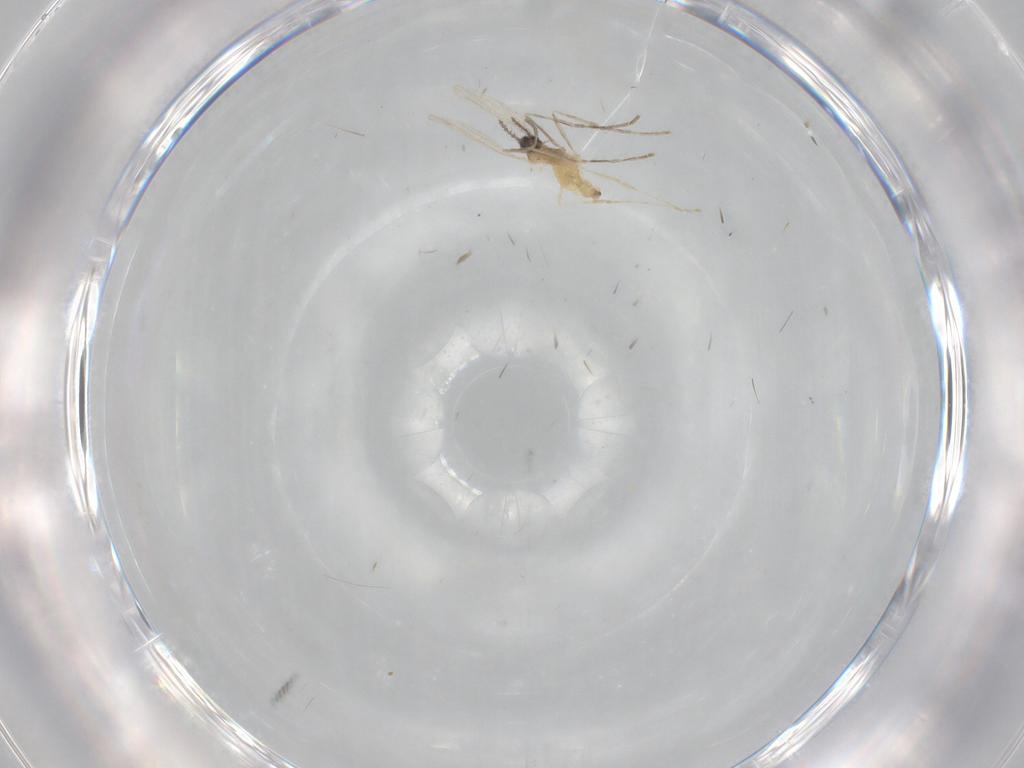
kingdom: Animalia
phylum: Arthropoda
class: Insecta
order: Diptera
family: Cecidomyiidae
